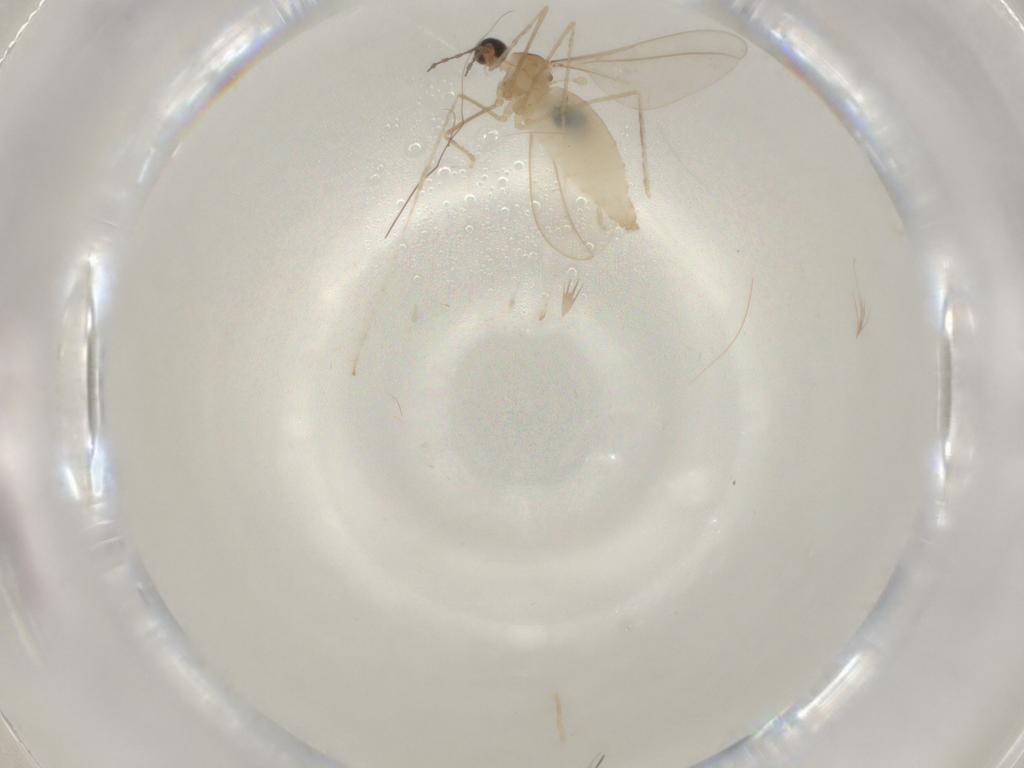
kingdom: Animalia
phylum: Arthropoda
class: Insecta
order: Diptera
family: Cecidomyiidae
